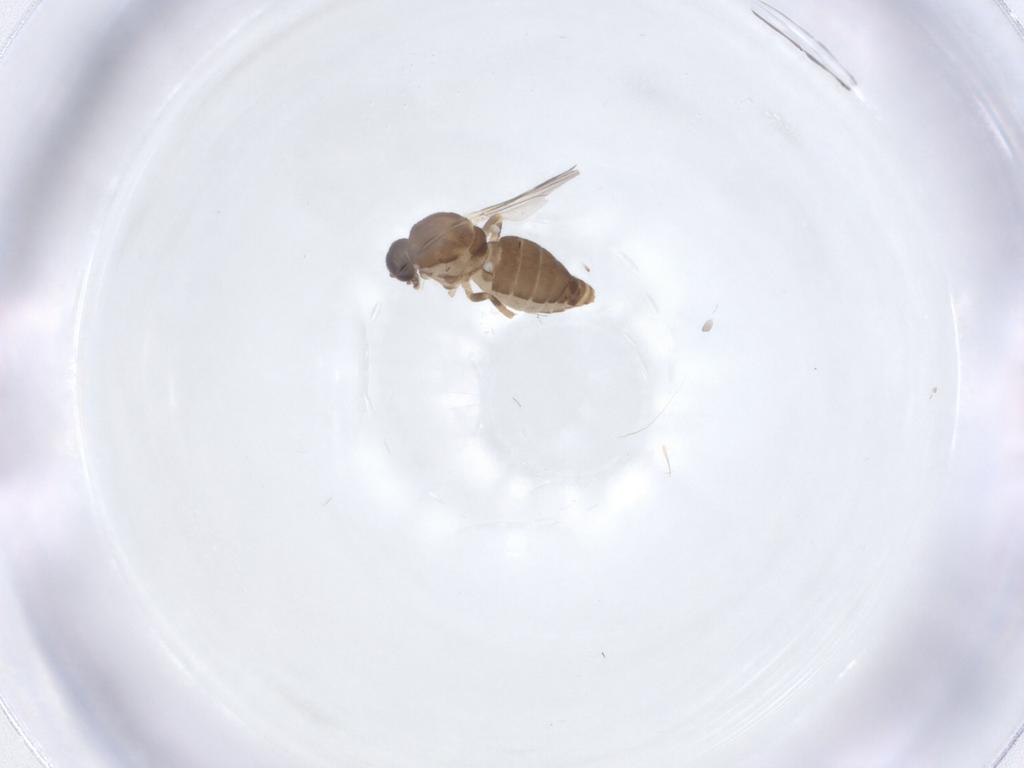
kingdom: Animalia
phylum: Arthropoda
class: Insecta
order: Diptera
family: Ceratopogonidae
